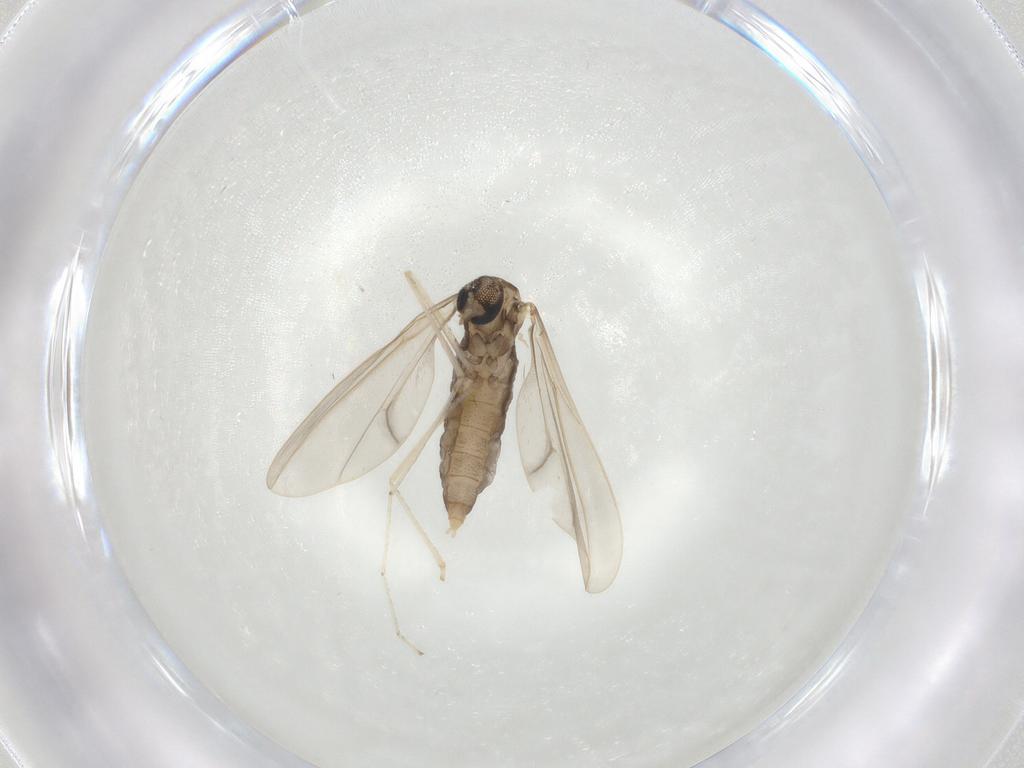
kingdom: Animalia
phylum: Arthropoda
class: Insecta
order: Diptera
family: Cecidomyiidae
